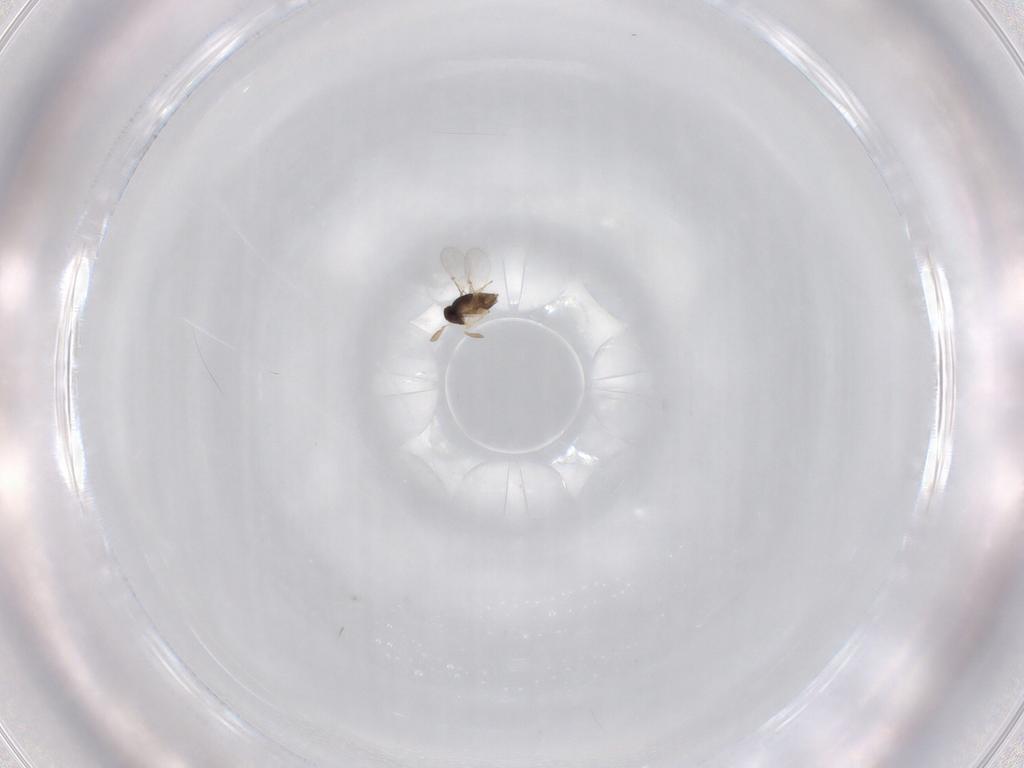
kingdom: Animalia
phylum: Arthropoda
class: Insecta
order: Hymenoptera
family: Encyrtidae
